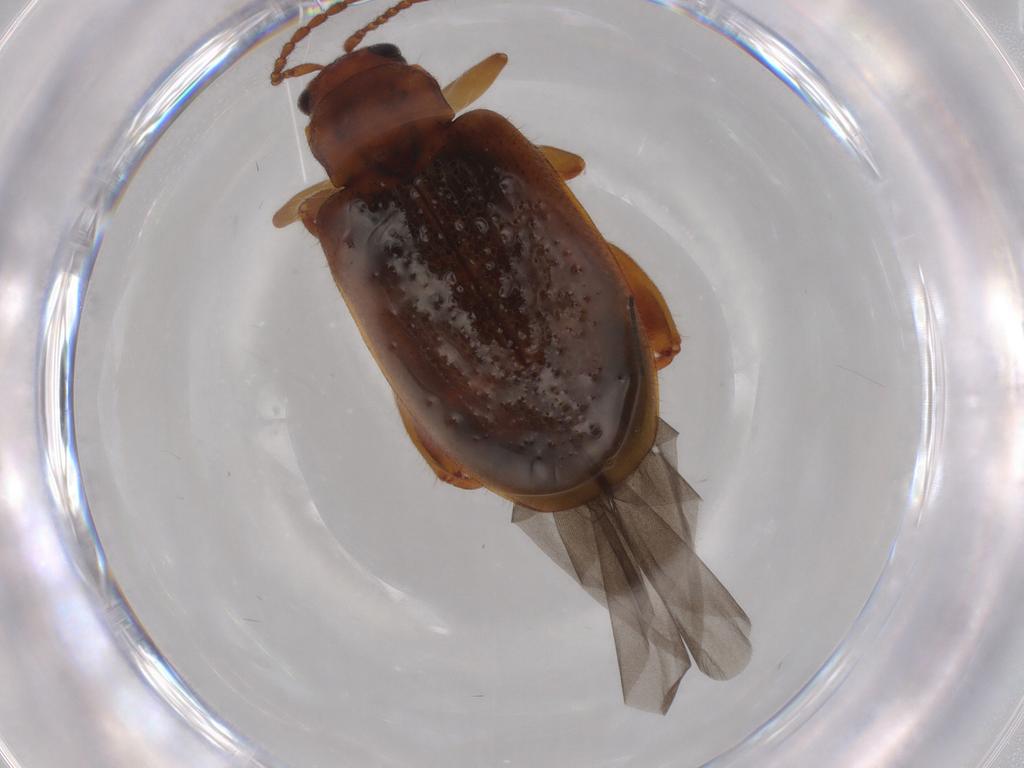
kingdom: Animalia
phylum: Arthropoda
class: Insecta
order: Coleoptera
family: Chrysomelidae
